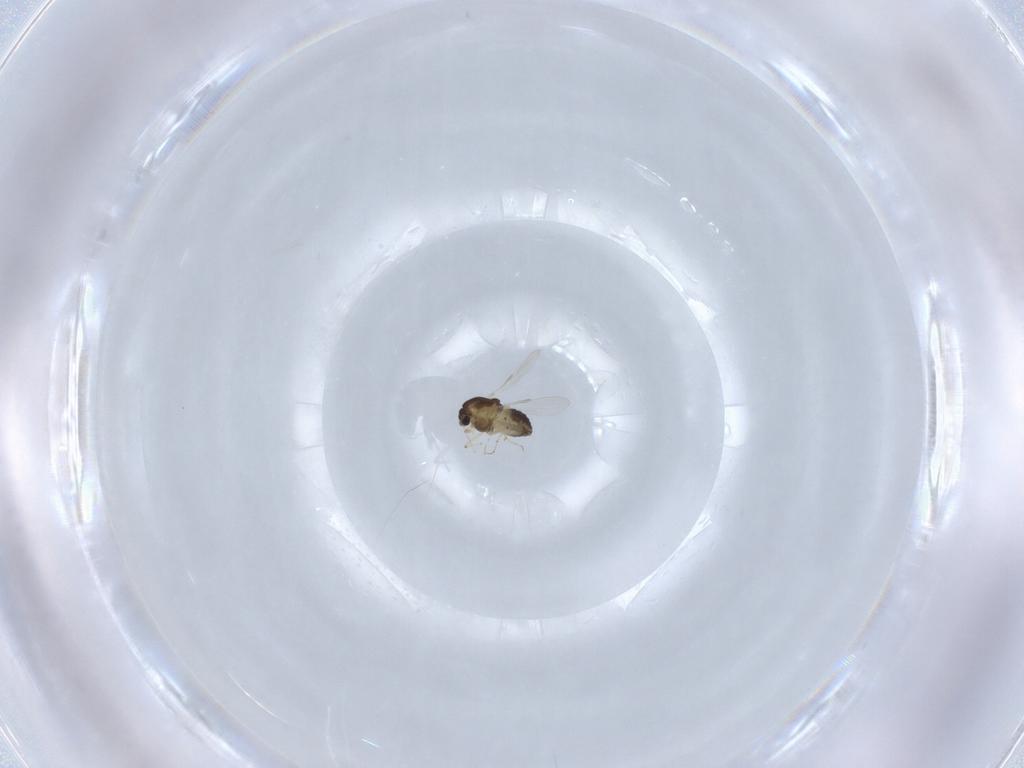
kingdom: Animalia
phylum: Arthropoda
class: Insecta
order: Diptera
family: Chironomidae
